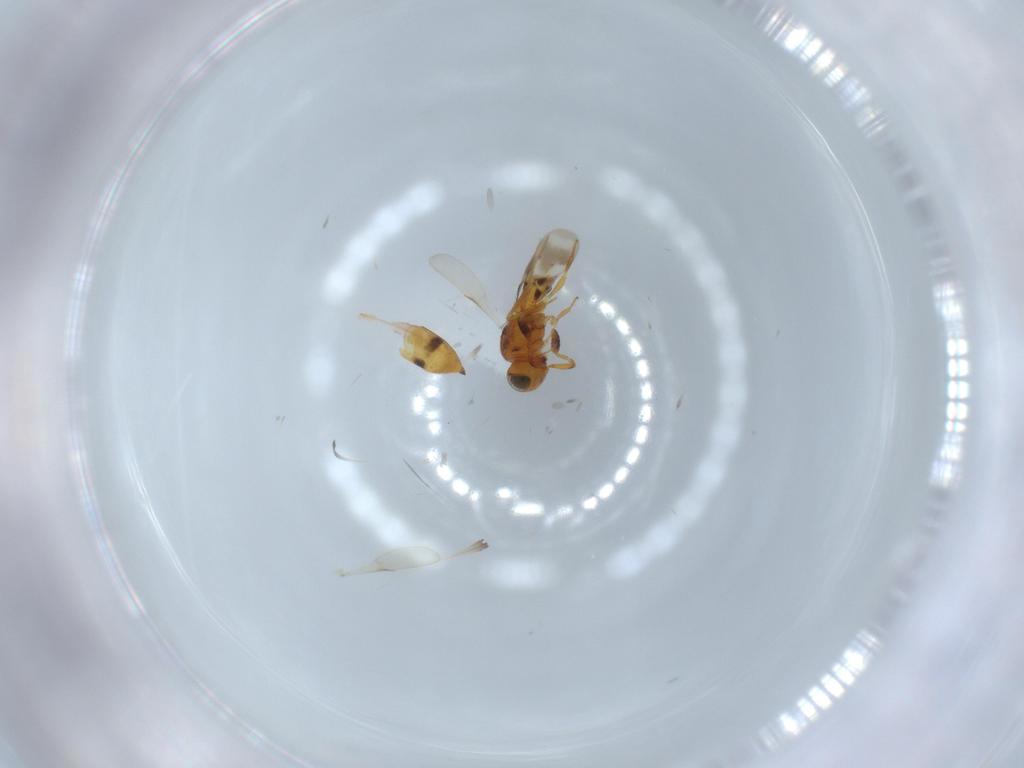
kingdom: Animalia
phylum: Arthropoda
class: Insecta
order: Hymenoptera
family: Scelionidae
